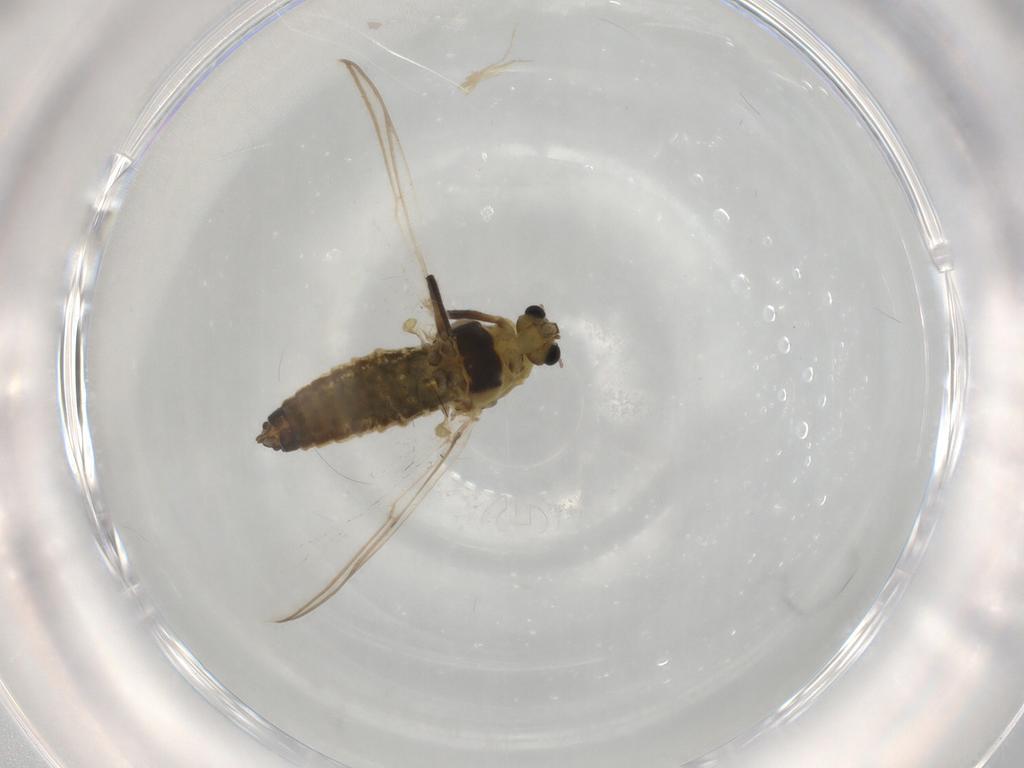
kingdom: Animalia
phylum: Arthropoda
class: Insecta
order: Diptera
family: Chironomidae
